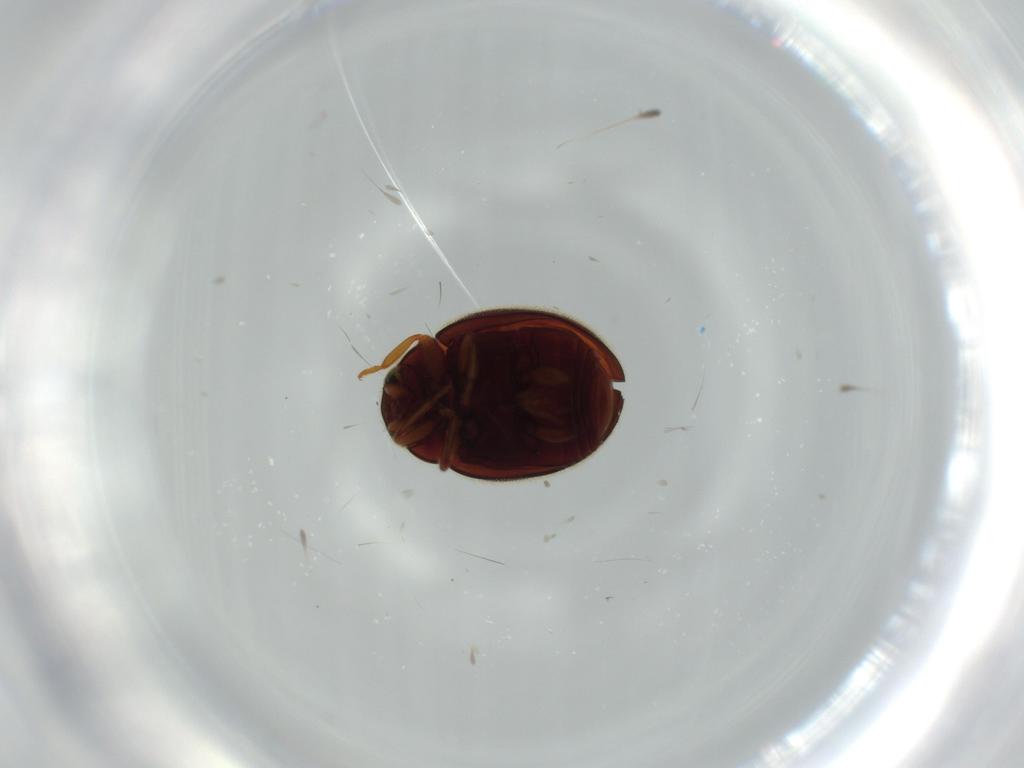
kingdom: Animalia
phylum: Arthropoda
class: Insecta
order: Coleoptera
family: Coccinellidae
